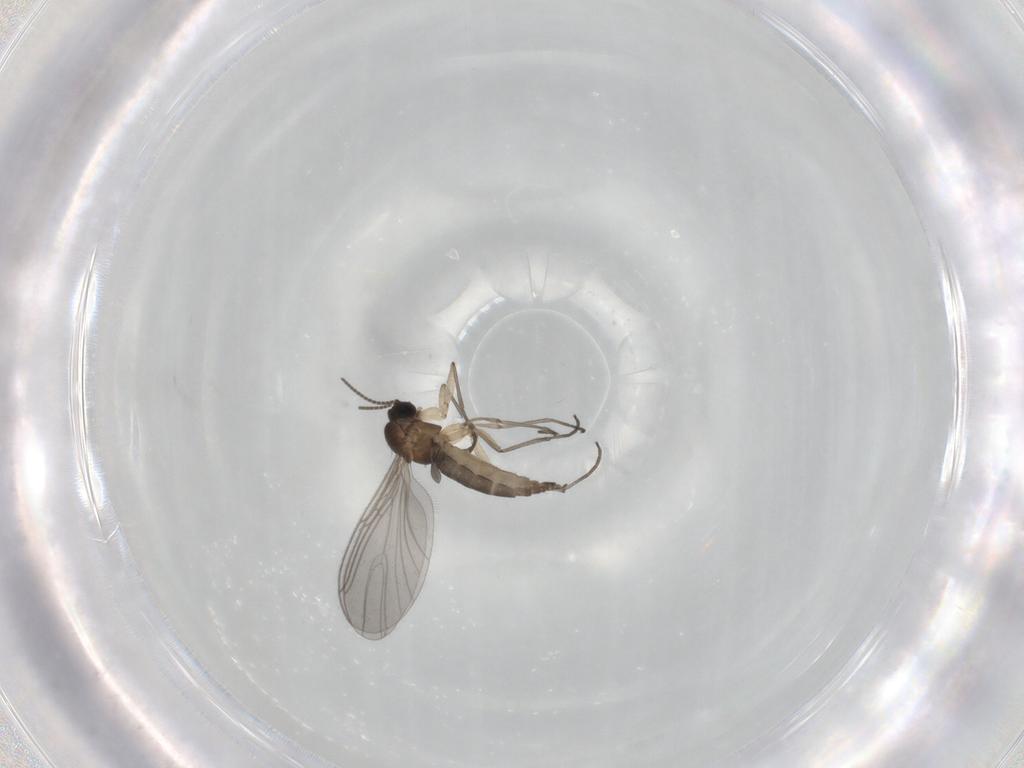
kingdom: Animalia
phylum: Arthropoda
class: Insecta
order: Diptera
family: Sciaridae
